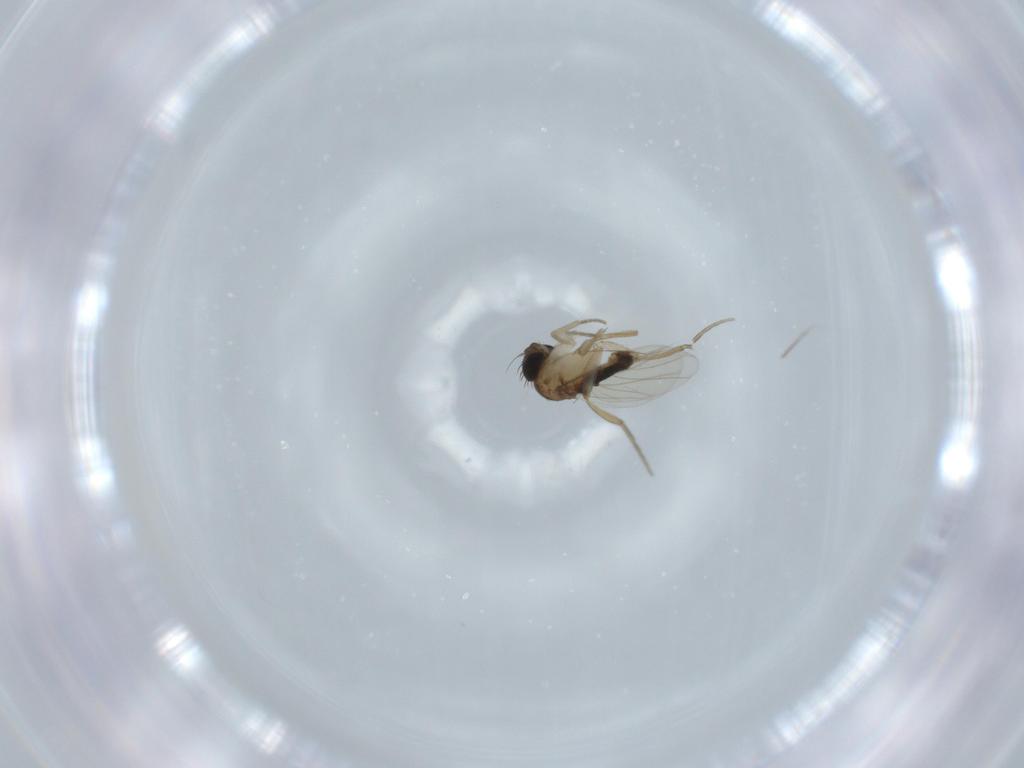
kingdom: Animalia
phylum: Arthropoda
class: Insecta
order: Diptera
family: Phoridae
